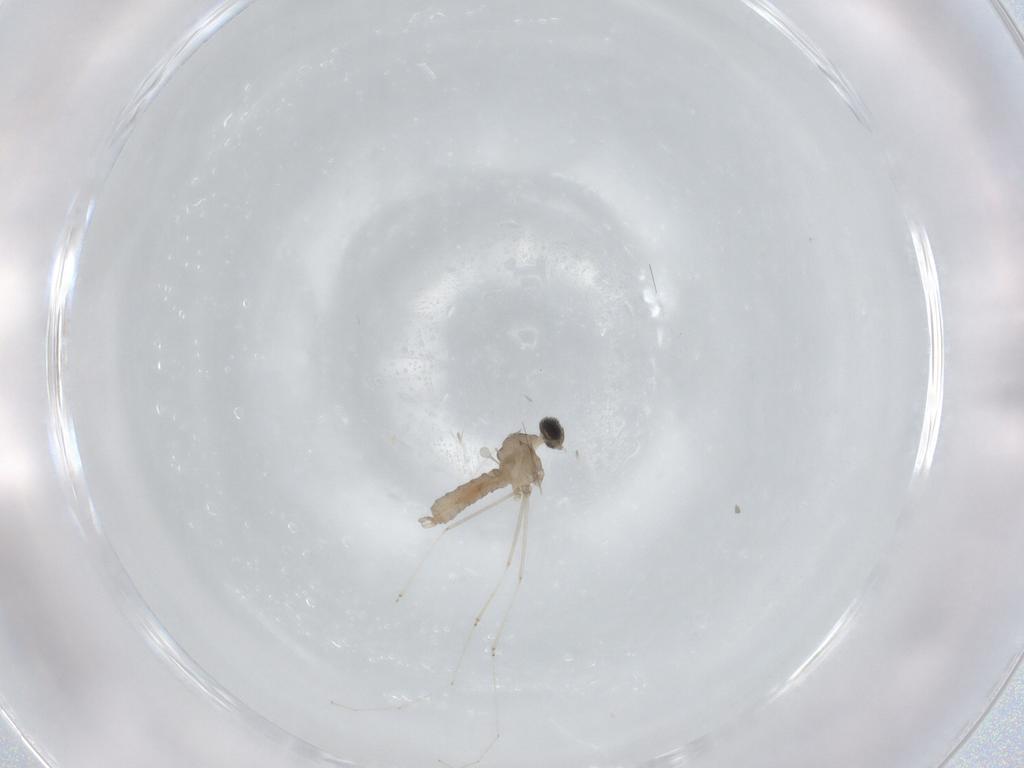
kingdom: Animalia
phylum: Arthropoda
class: Insecta
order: Diptera
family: Cecidomyiidae
